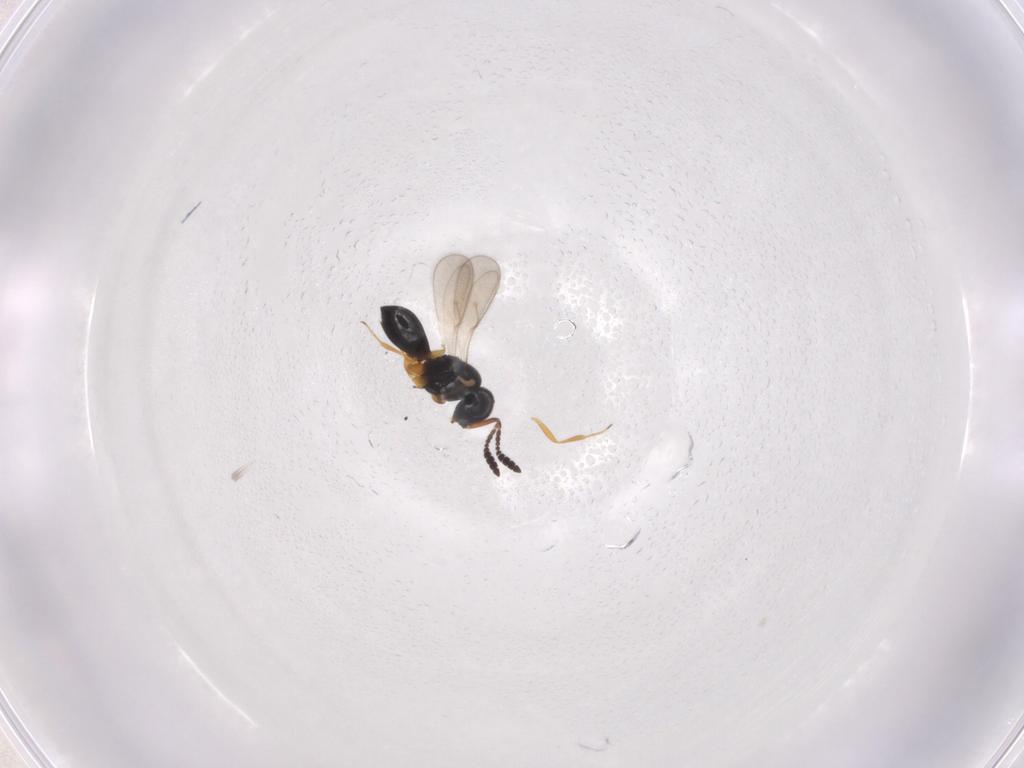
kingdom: Animalia
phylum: Arthropoda
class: Insecta
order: Hymenoptera
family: Scelionidae
